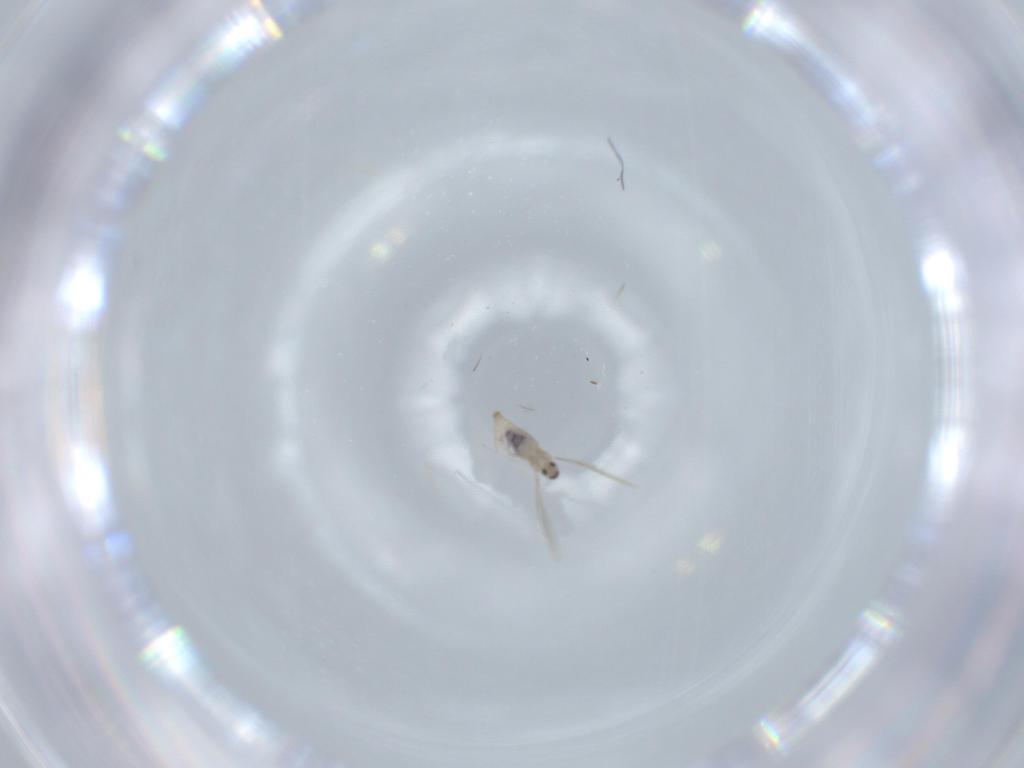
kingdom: Animalia
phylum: Arthropoda
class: Insecta
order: Diptera
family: Cecidomyiidae
